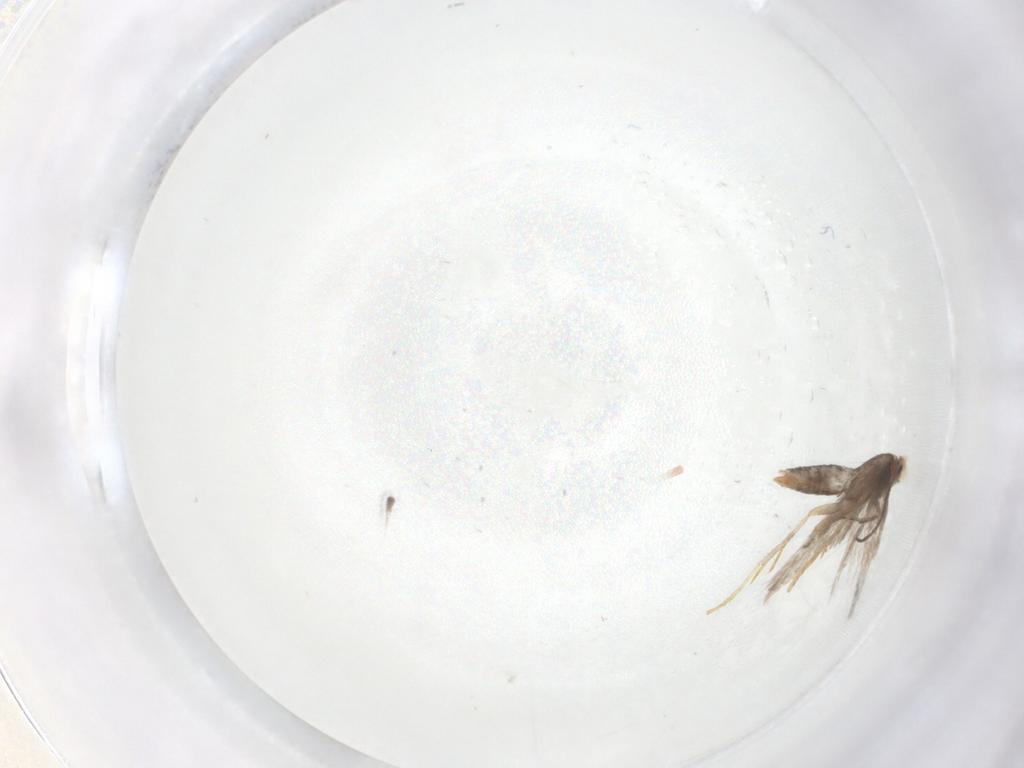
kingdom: Animalia
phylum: Arthropoda
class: Insecta
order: Lepidoptera
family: Nepticulidae
